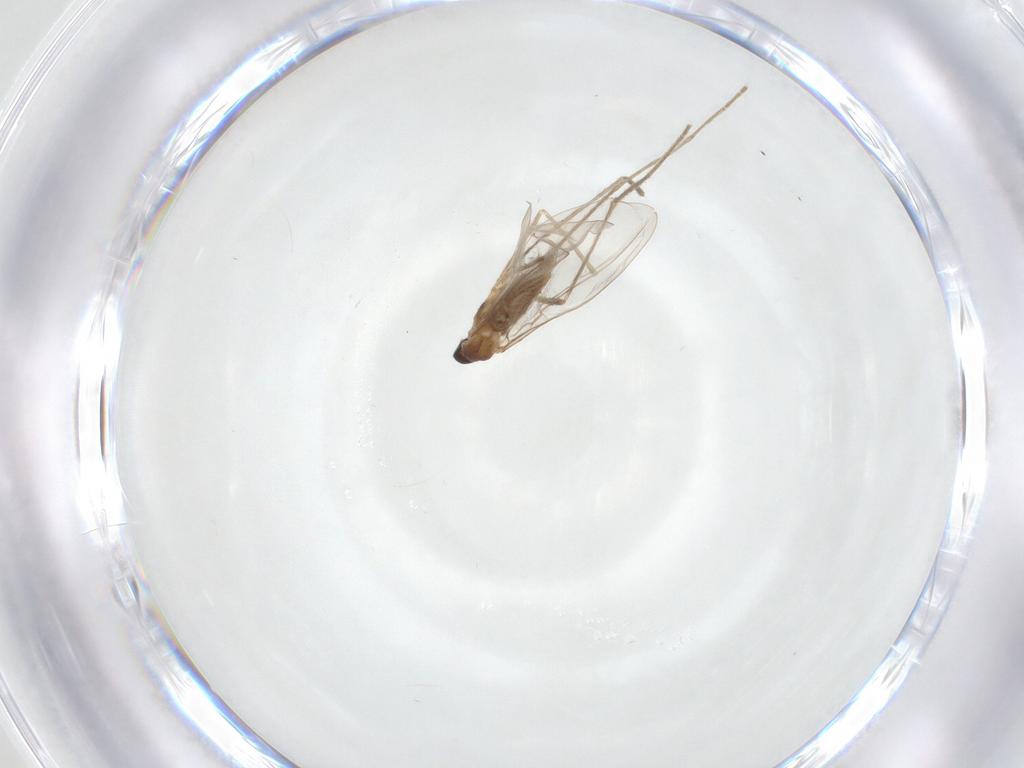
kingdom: Animalia
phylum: Arthropoda
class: Insecta
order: Diptera
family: Cecidomyiidae
